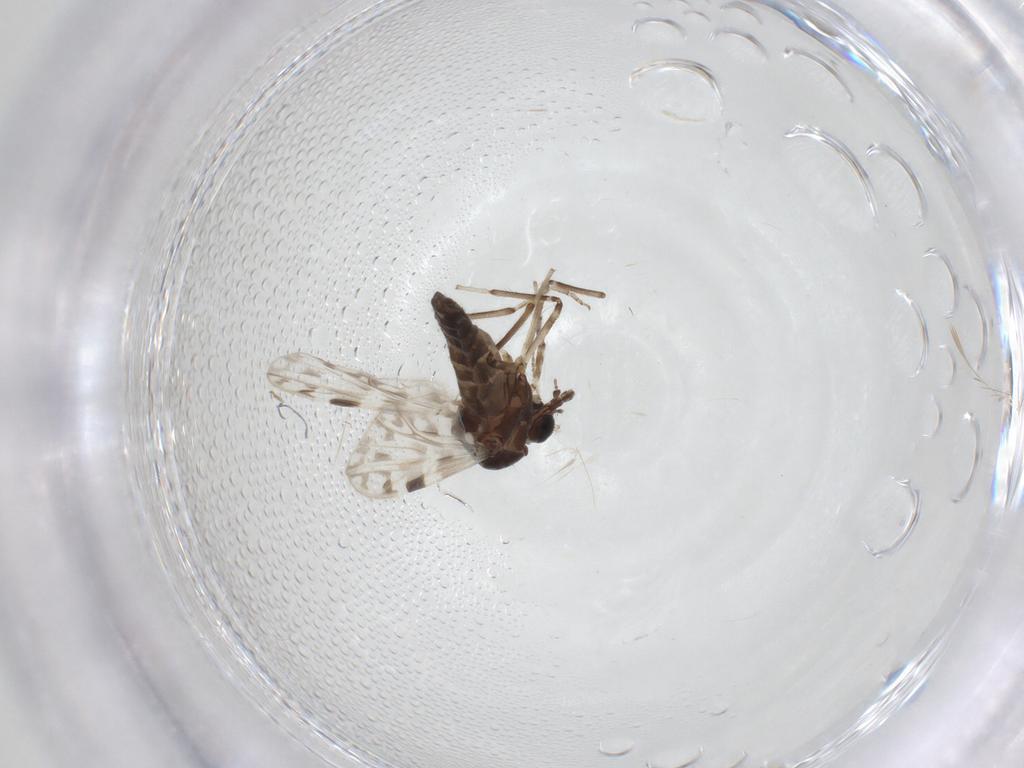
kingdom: Animalia
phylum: Arthropoda
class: Insecta
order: Diptera
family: Ceratopogonidae
